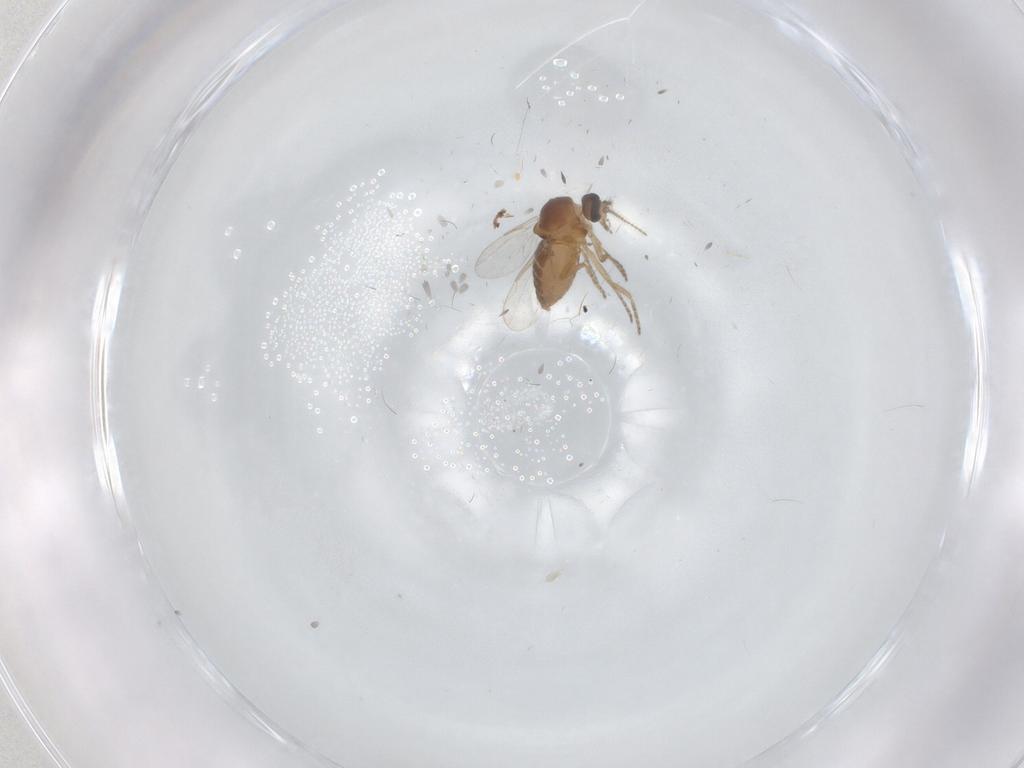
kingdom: Animalia
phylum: Arthropoda
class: Insecta
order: Diptera
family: Ceratopogonidae
